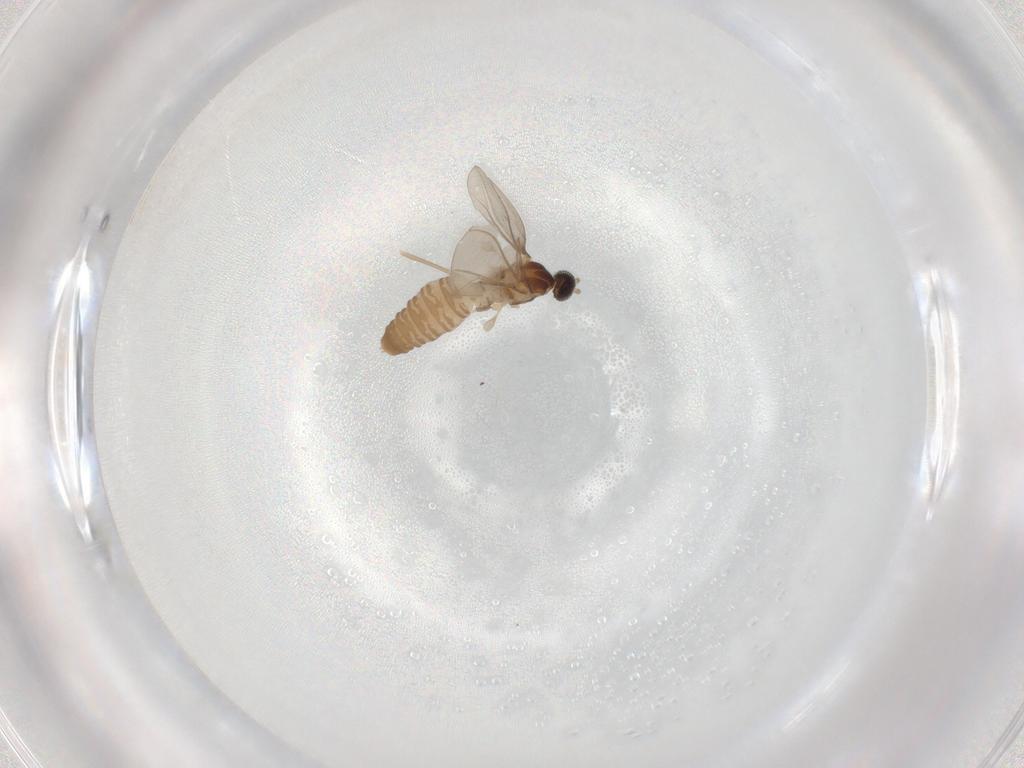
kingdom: Animalia
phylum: Arthropoda
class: Insecta
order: Diptera
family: Cecidomyiidae
